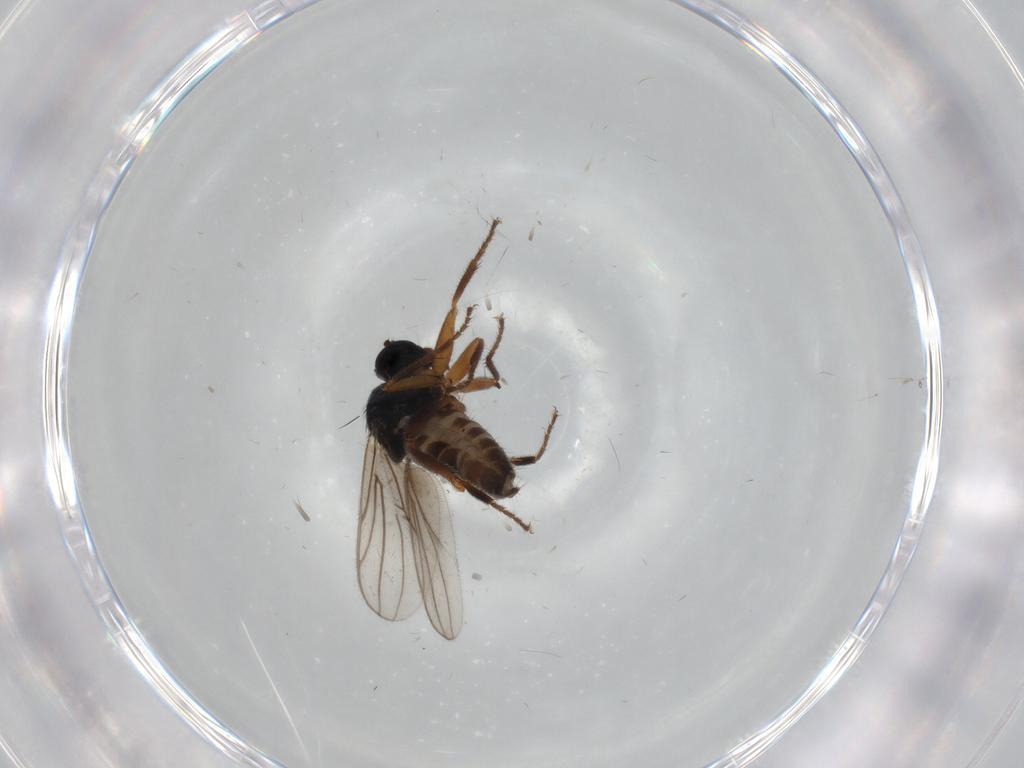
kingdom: Animalia
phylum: Arthropoda
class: Insecta
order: Diptera
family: Hybotidae
